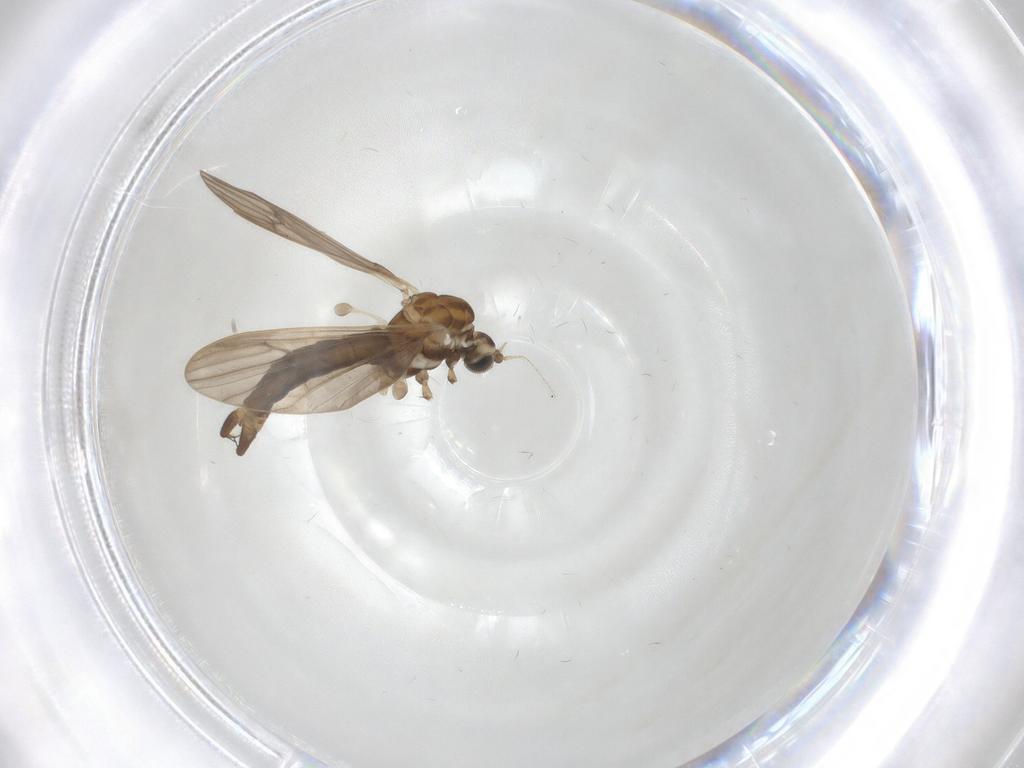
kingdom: Animalia
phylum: Arthropoda
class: Insecta
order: Diptera
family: Limoniidae
